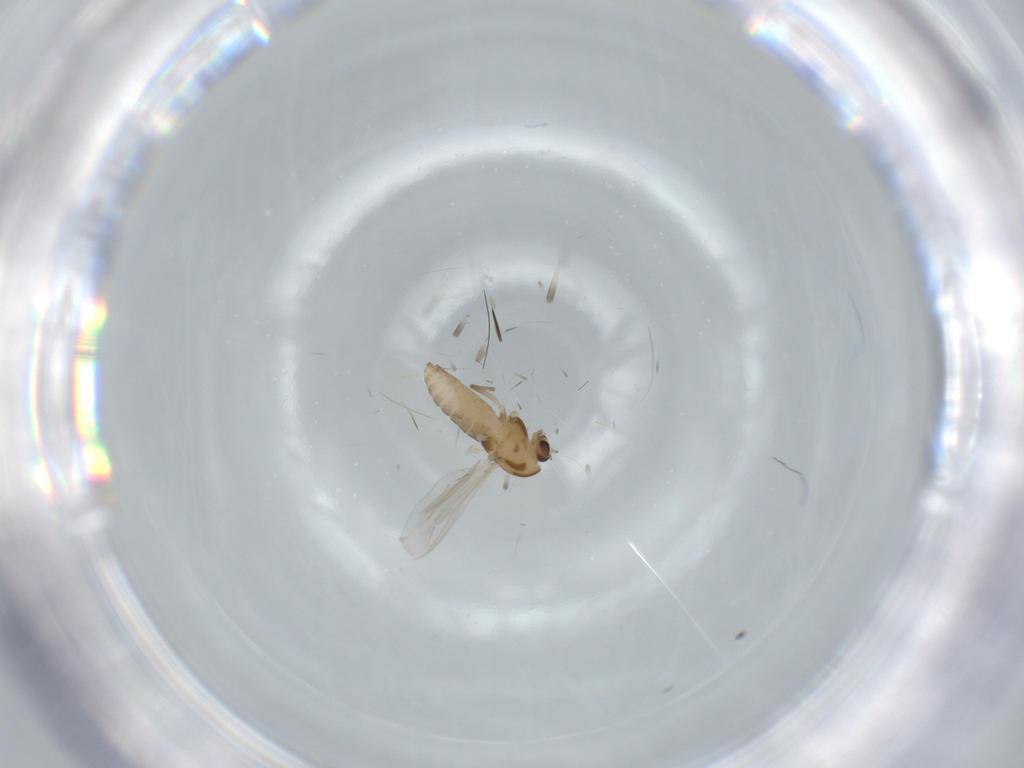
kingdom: Animalia
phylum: Arthropoda
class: Insecta
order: Diptera
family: Chironomidae
